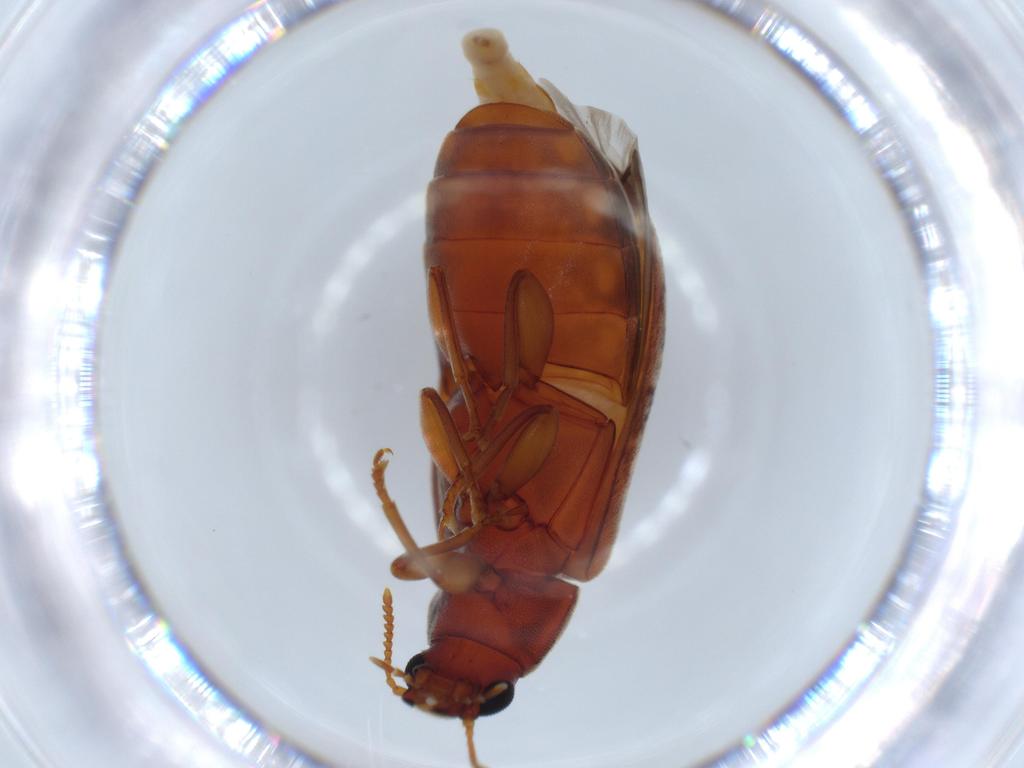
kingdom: Animalia
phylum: Arthropoda
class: Insecta
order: Coleoptera
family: Mycteridae
